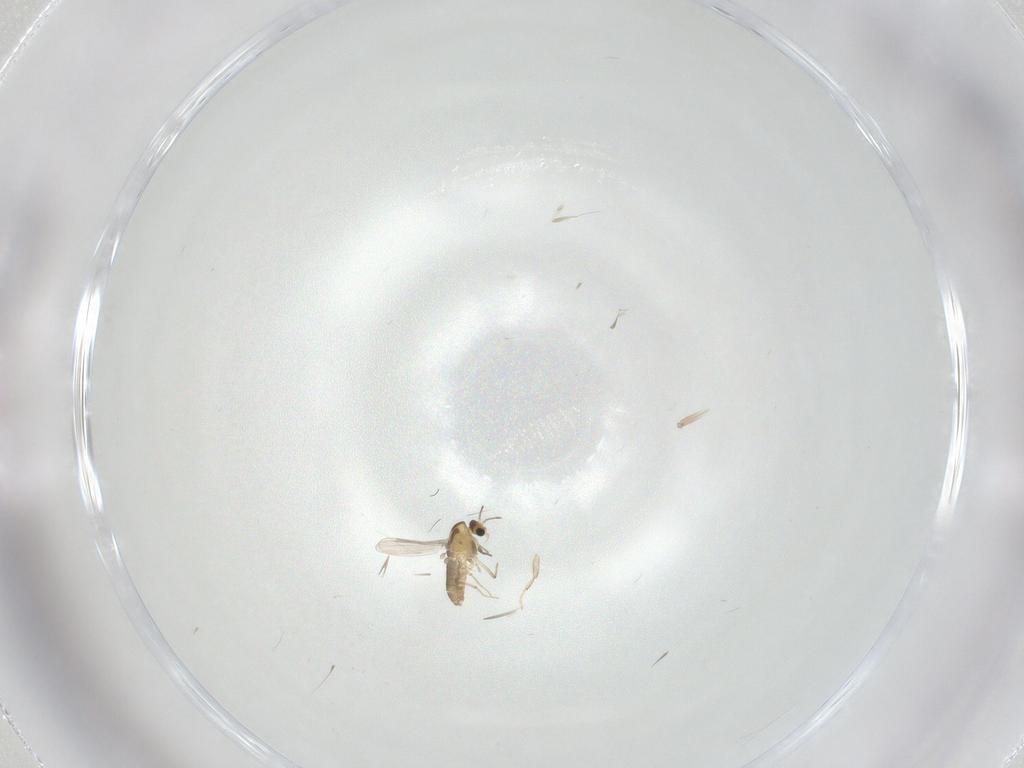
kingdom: Animalia
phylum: Arthropoda
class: Insecta
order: Diptera
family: Chironomidae
